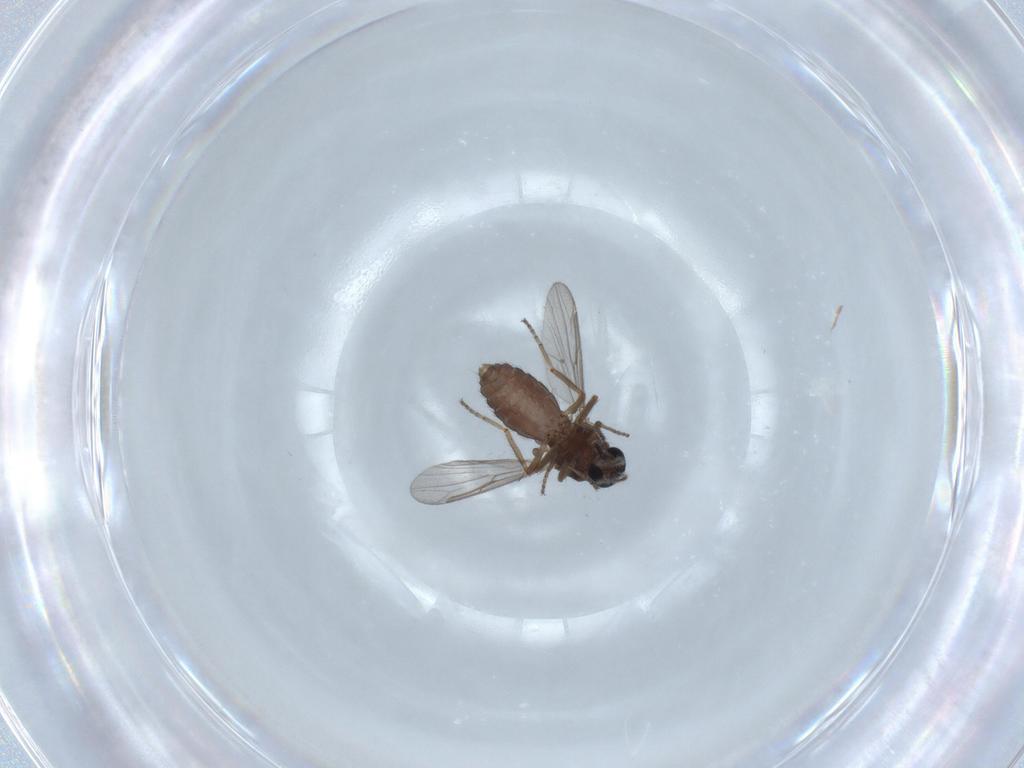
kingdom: Animalia
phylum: Arthropoda
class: Insecta
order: Diptera
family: Ceratopogonidae
